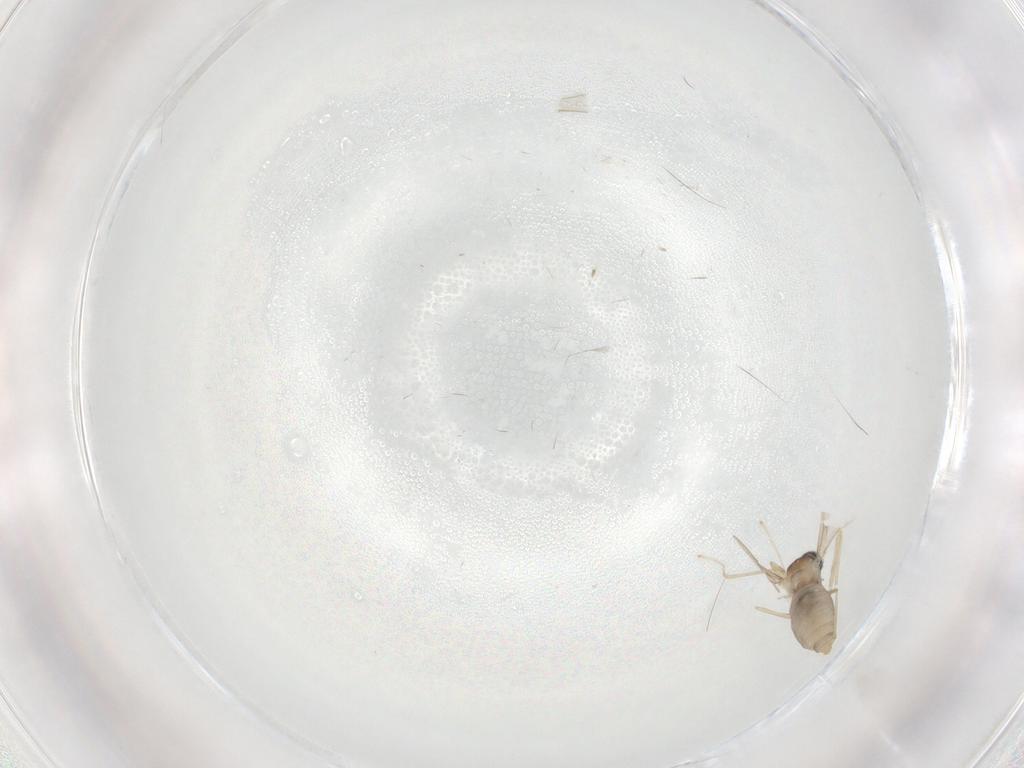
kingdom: Animalia
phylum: Arthropoda
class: Insecta
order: Diptera
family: Cecidomyiidae
